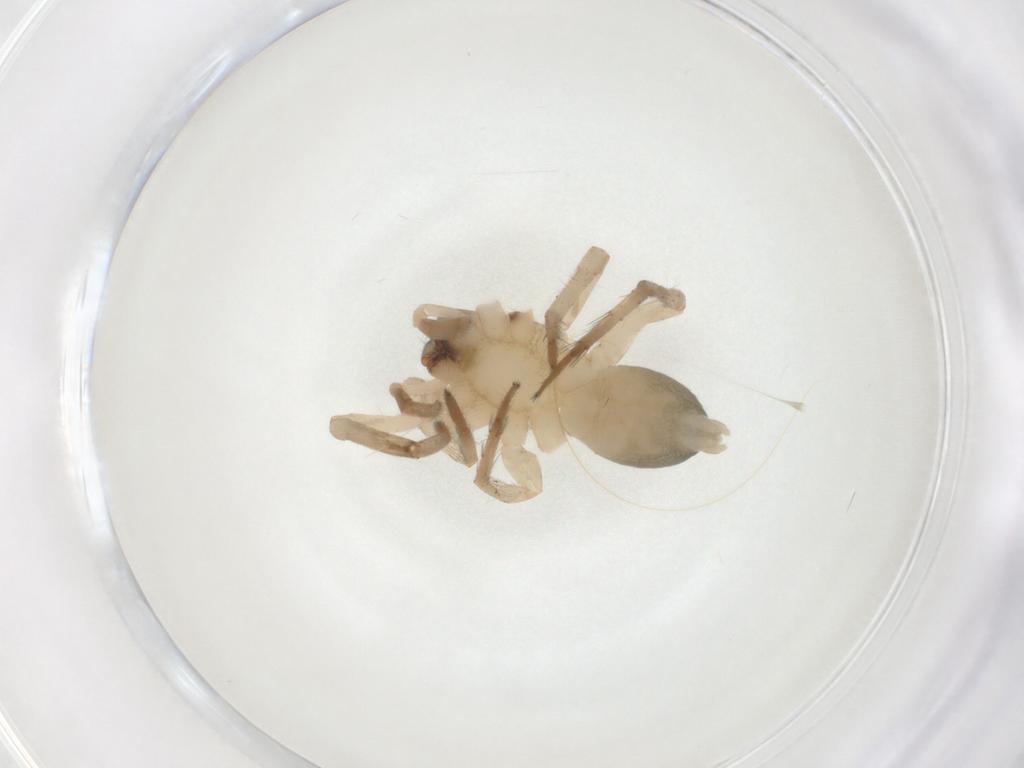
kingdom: Animalia
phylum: Arthropoda
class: Arachnida
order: Araneae
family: Amaurobiidae
